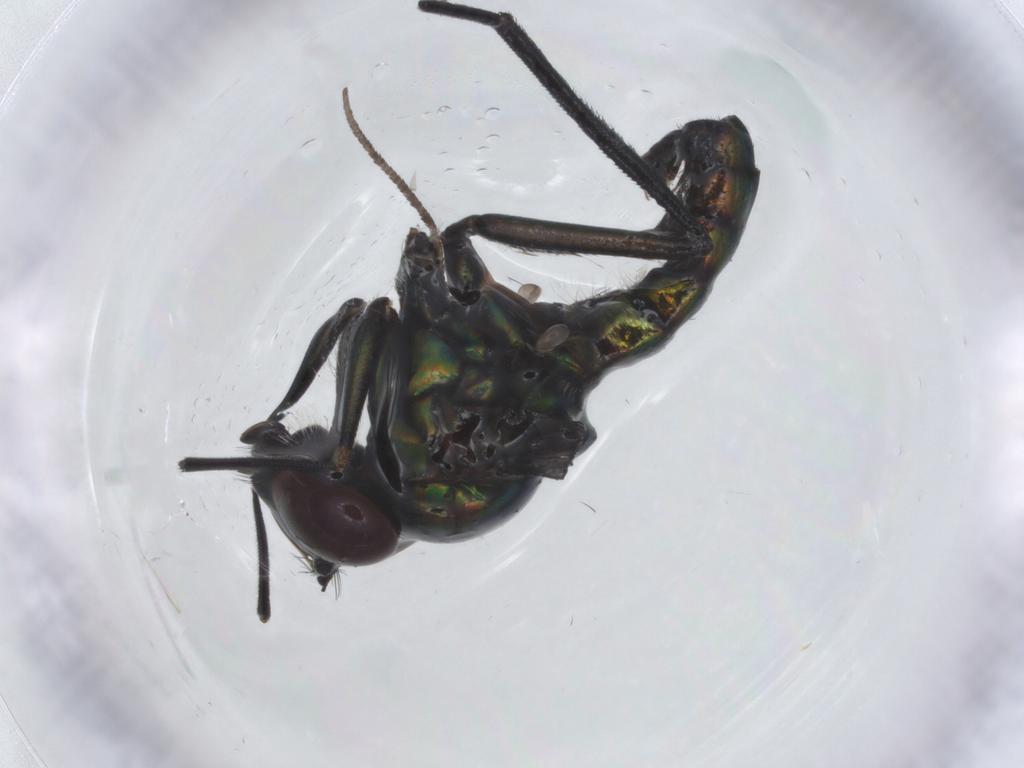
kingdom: Animalia
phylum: Arthropoda
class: Insecta
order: Diptera
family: Dolichopodidae
